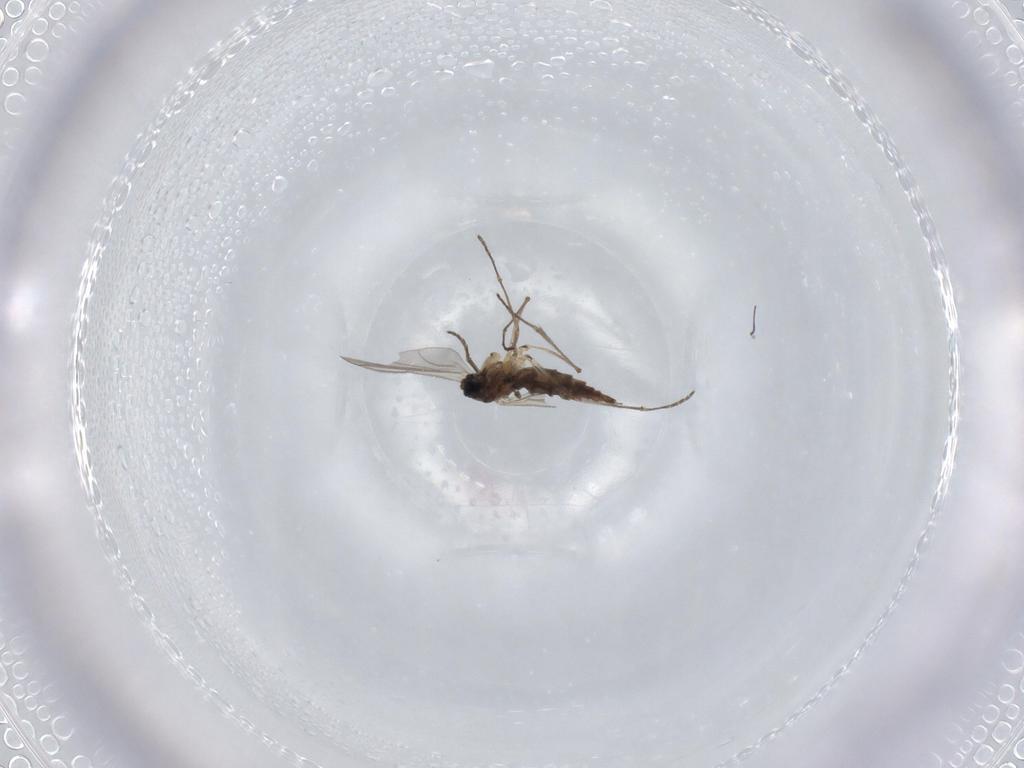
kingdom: Animalia
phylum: Arthropoda
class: Insecta
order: Diptera
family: Sciaridae
